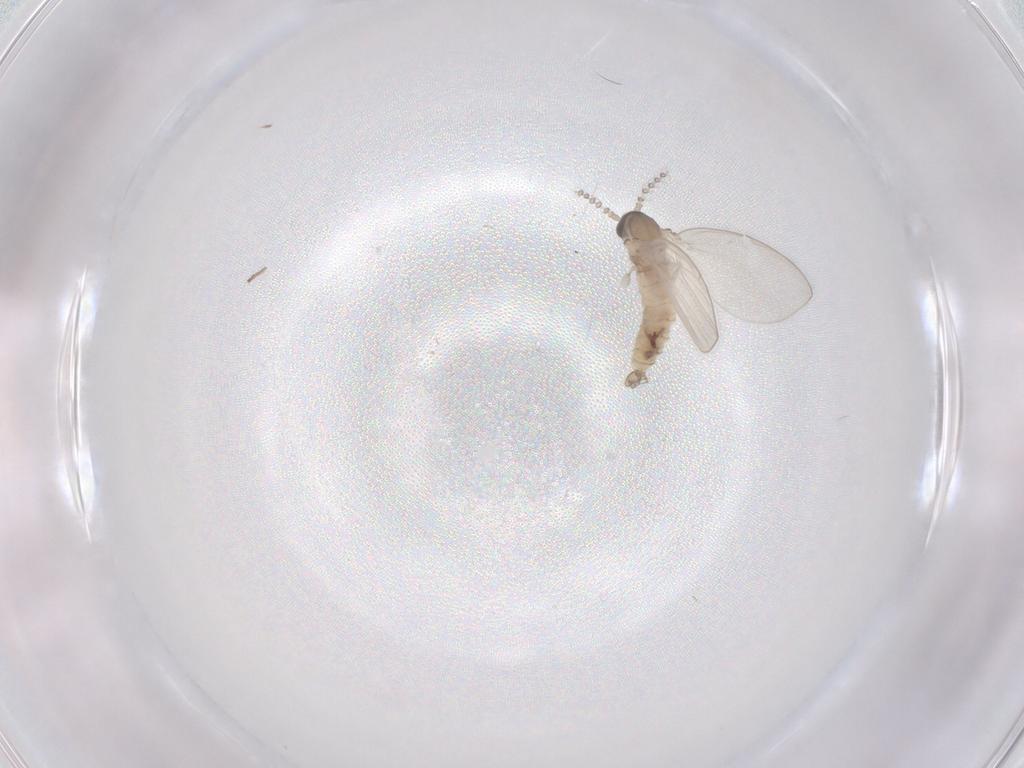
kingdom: Animalia
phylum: Arthropoda
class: Insecta
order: Diptera
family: Psychodidae
